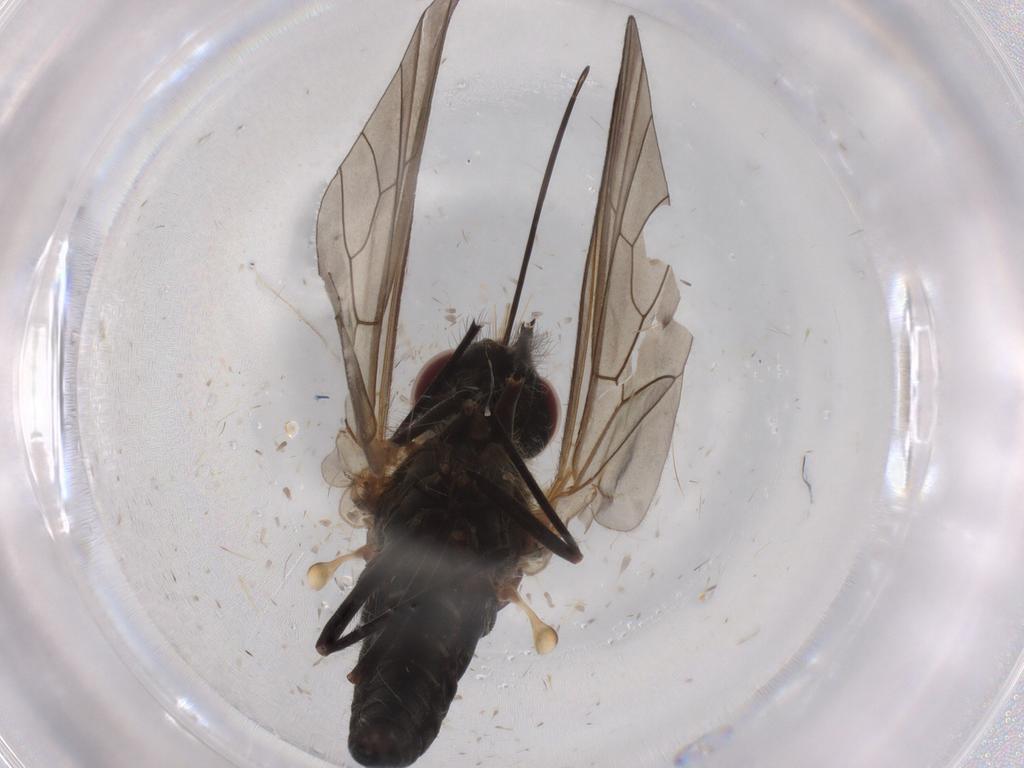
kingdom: Animalia
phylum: Arthropoda
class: Insecta
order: Diptera
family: Bombyliidae
